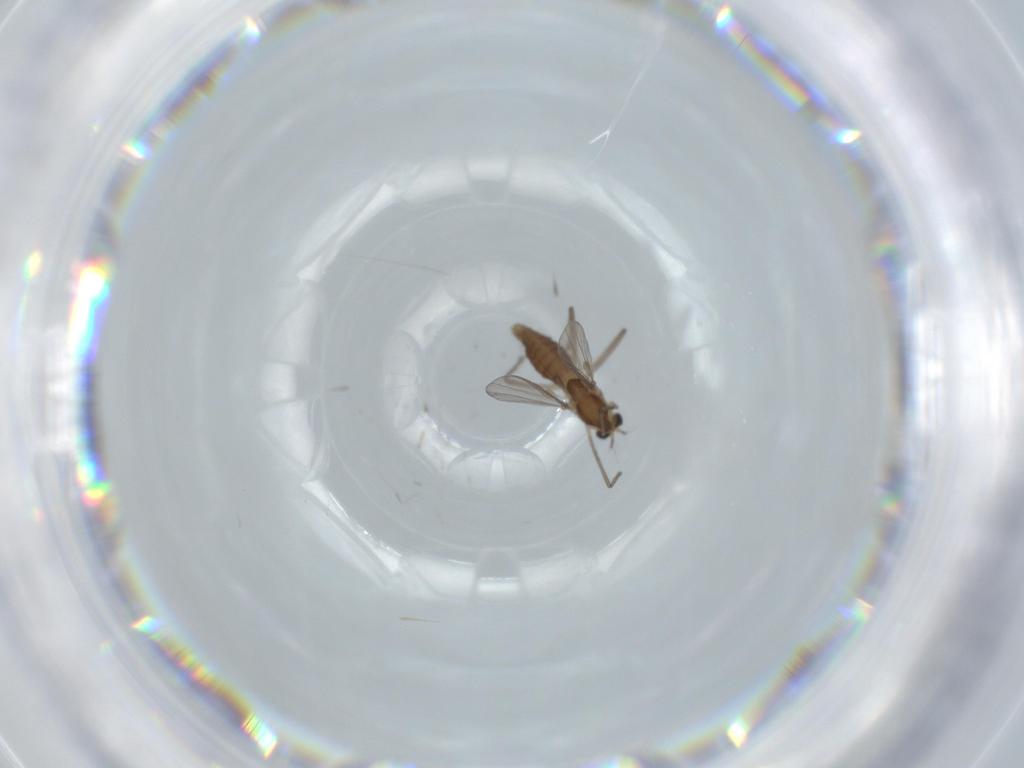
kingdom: Animalia
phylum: Arthropoda
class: Insecta
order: Diptera
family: Chironomidae
